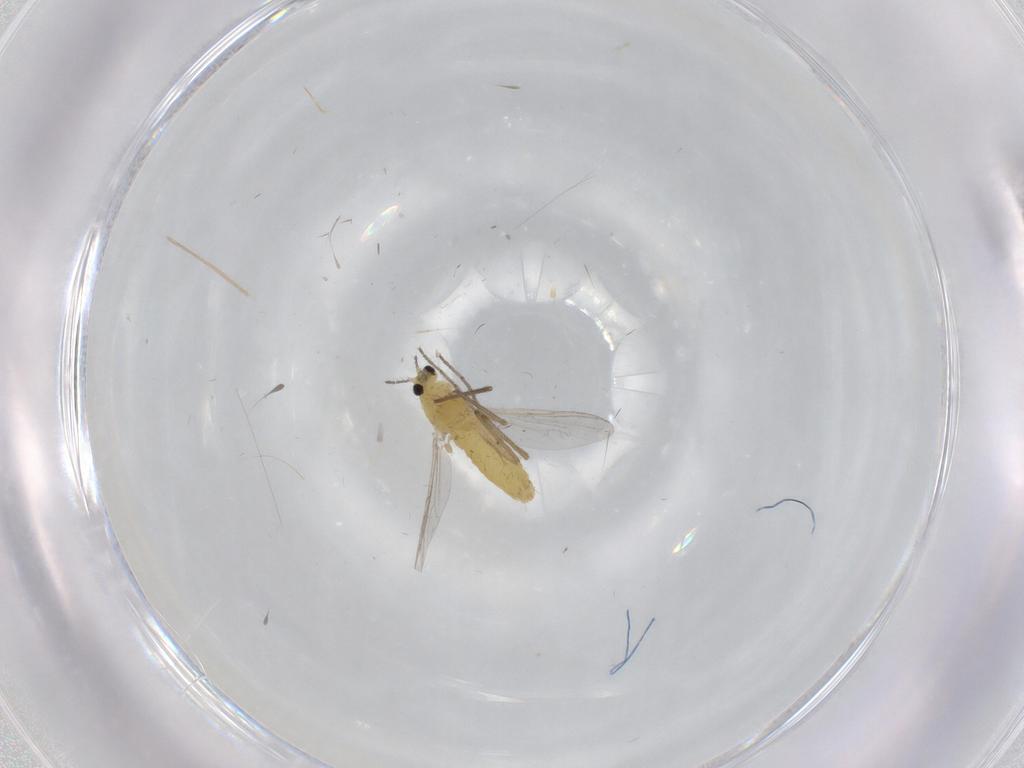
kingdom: Animalia
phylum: Arthropoda
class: Insecta
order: Diptera
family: Chironomidae
